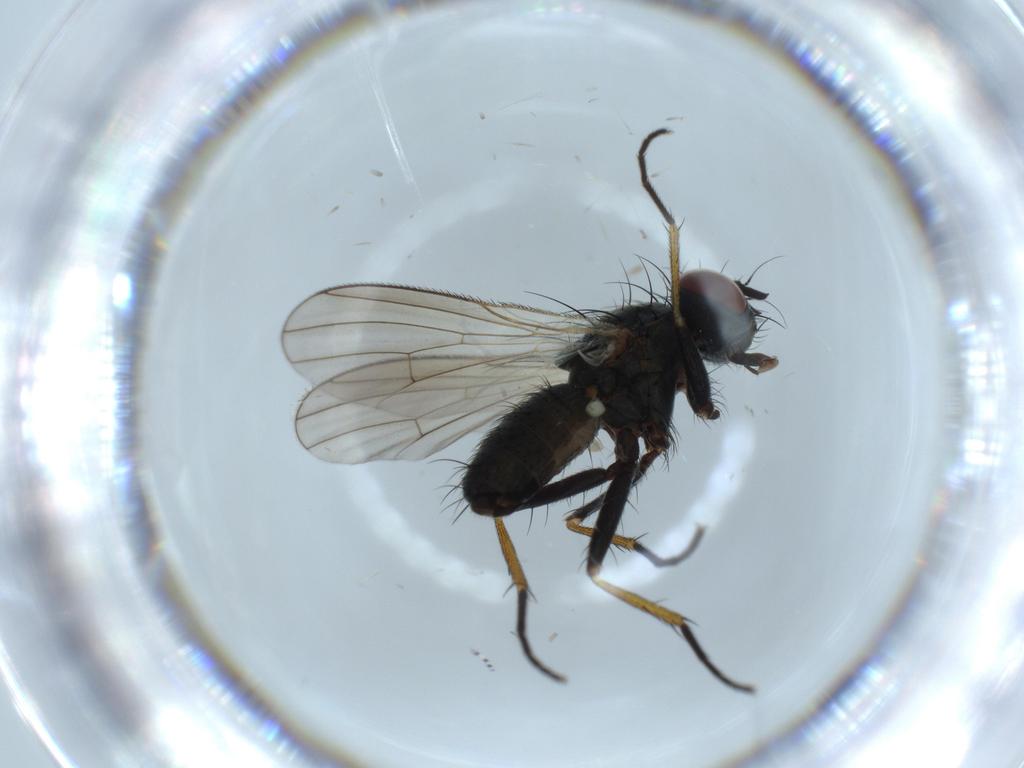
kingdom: Animalia
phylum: Arthropoda
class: Insecta
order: Diptera
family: Muscidae
